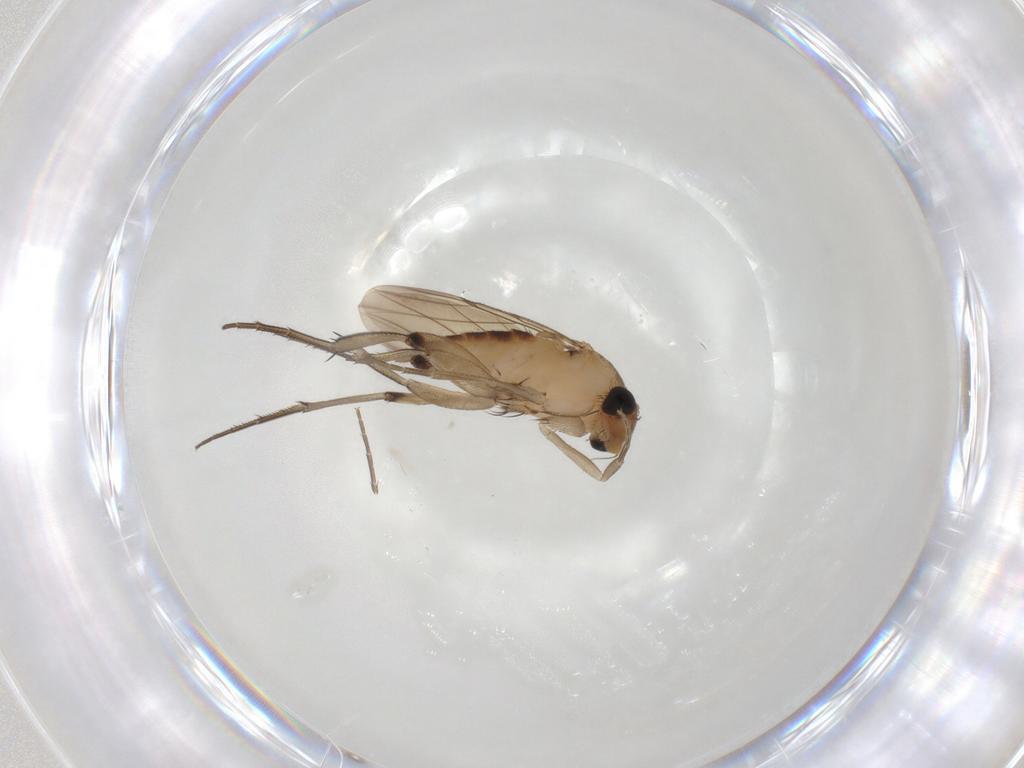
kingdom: Animalia
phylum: Arthropoda
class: Insecta
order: Diptera
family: Phoridae
